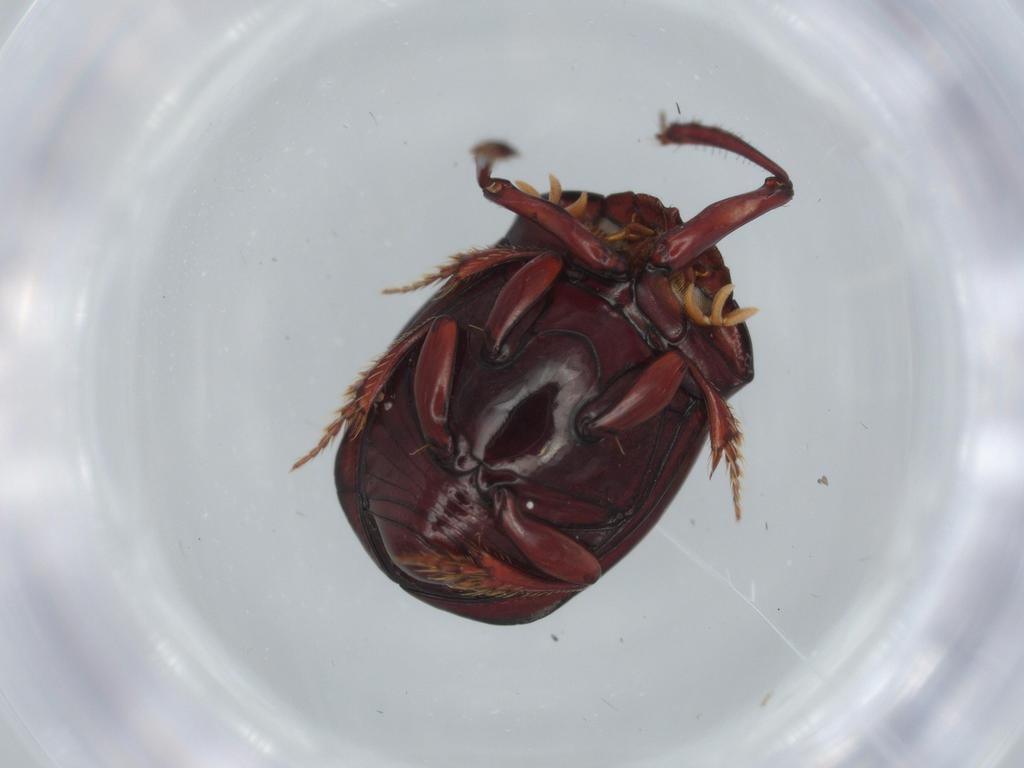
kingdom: Animalia
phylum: Arthropoda
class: Insecta
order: Coleoptera
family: Scarabaeidae
